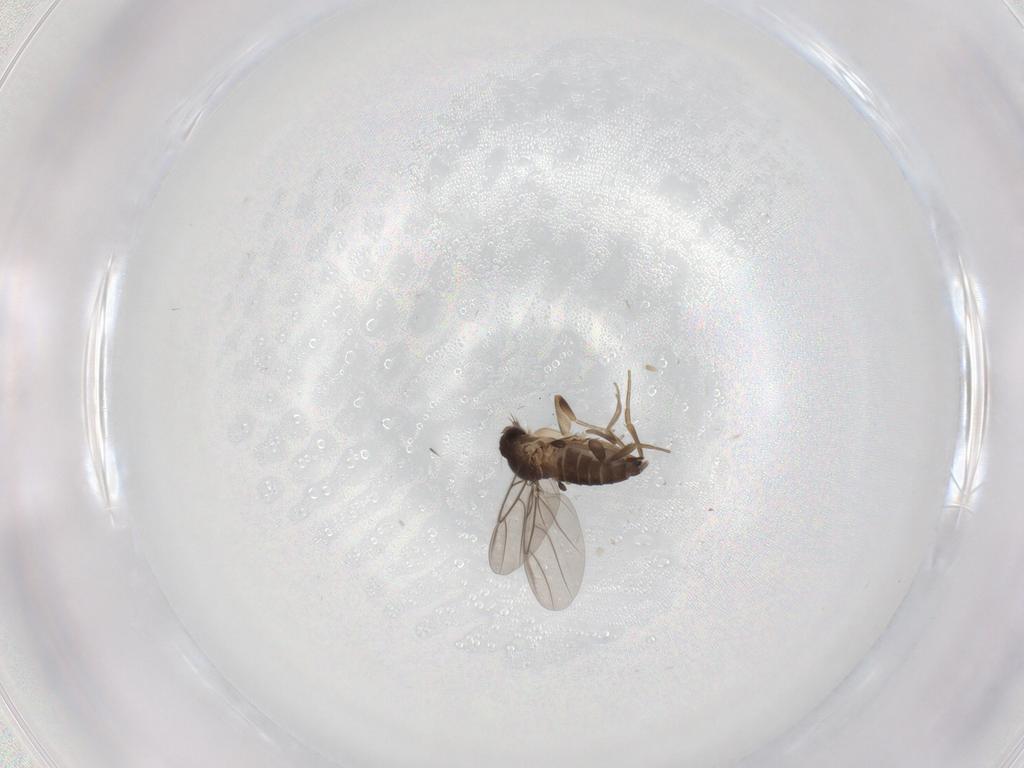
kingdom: Animalia
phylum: Arthropoda
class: Insecta
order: Diptera
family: Phoridae
